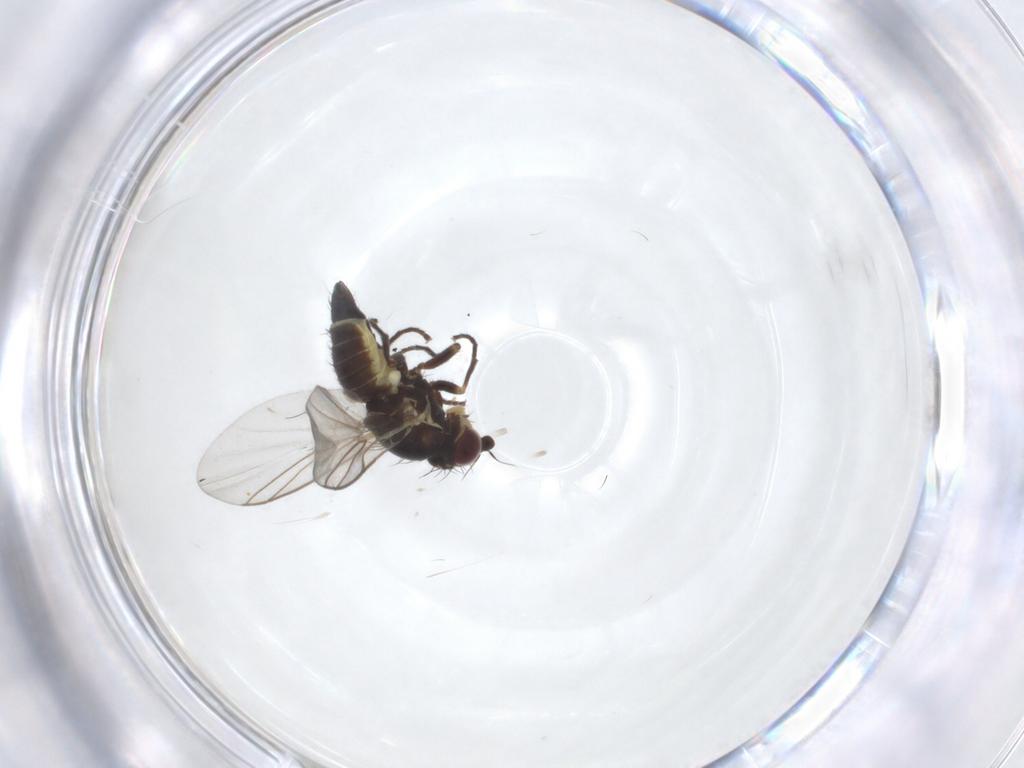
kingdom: Animalia
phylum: Arthropoda
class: Insecta
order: Diptera
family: Agromyzidae
